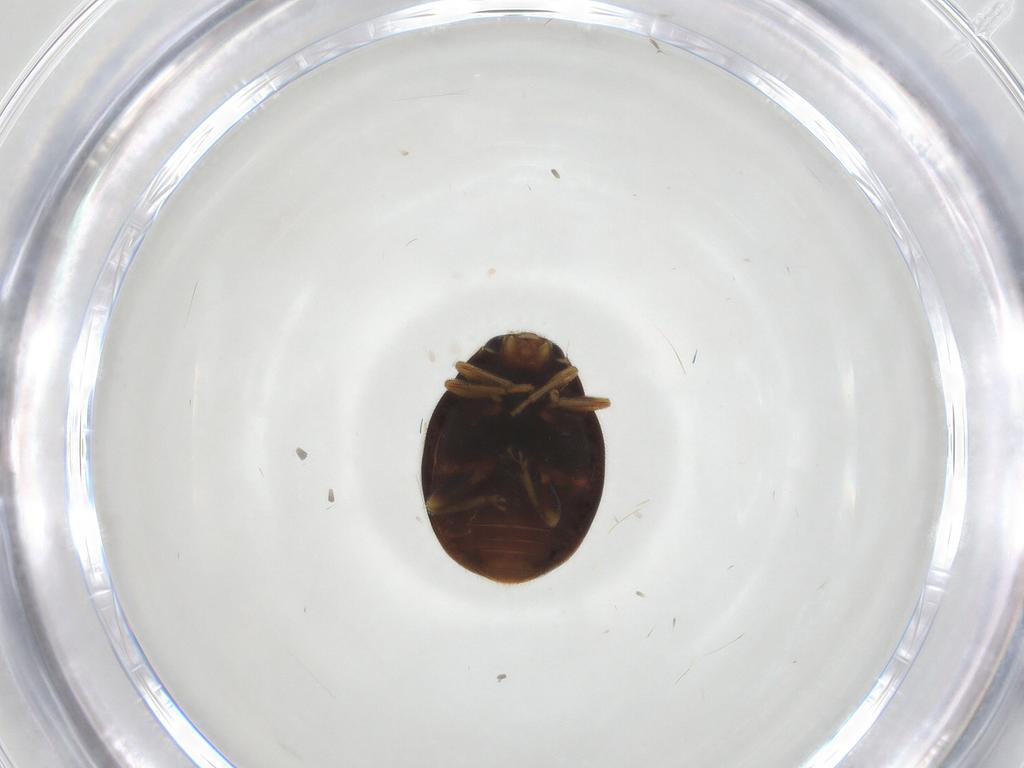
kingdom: Animalia
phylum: Arthropoda
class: Insecta
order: Coleoptera
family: Coccinellidae
